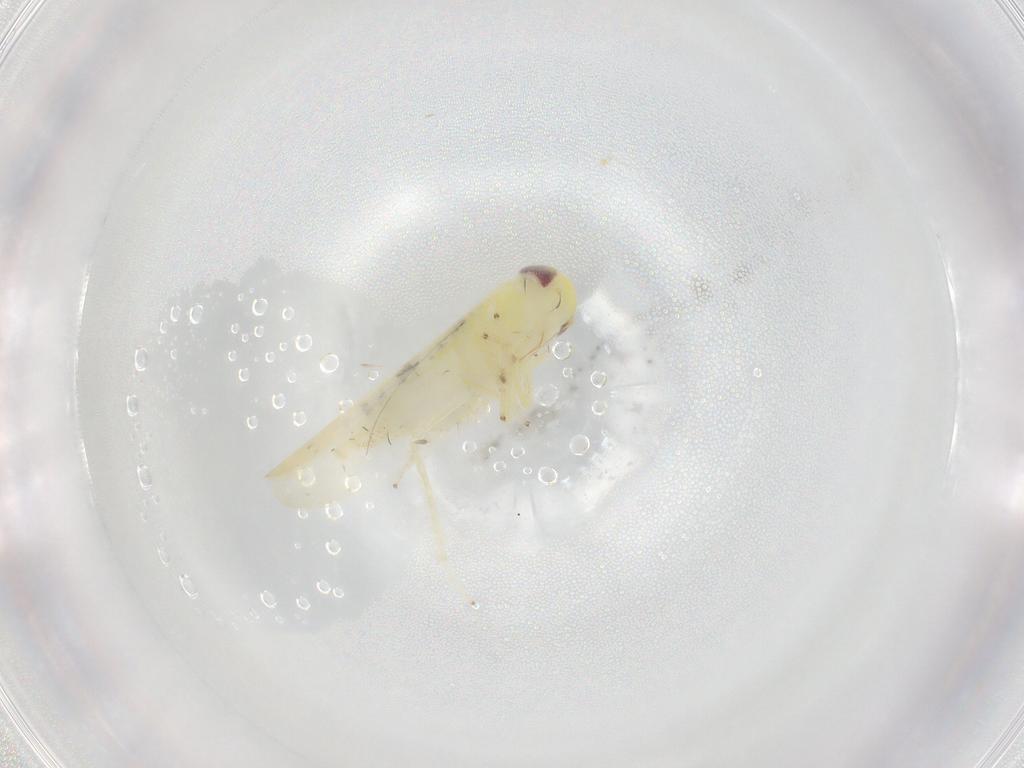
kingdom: Animalia
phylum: Arthropoda
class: Insecta
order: Hemiptera
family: Cicadellidae
